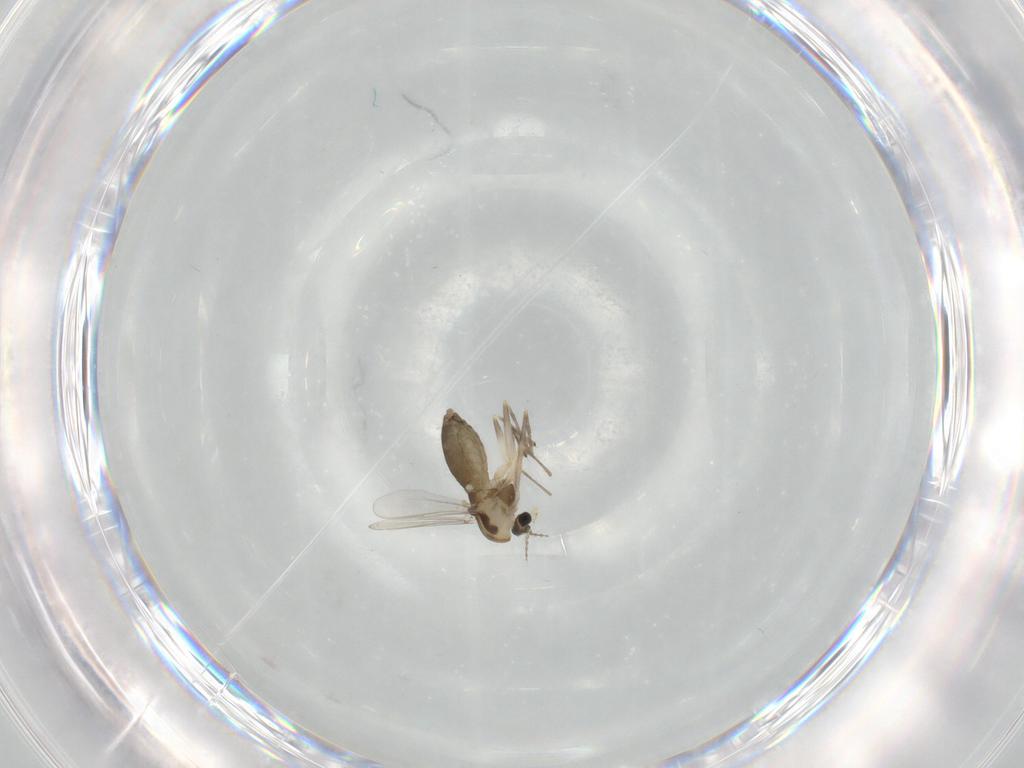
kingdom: Animalia
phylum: Arthropoda
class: Insecta
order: Diptera
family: Chironomidae
